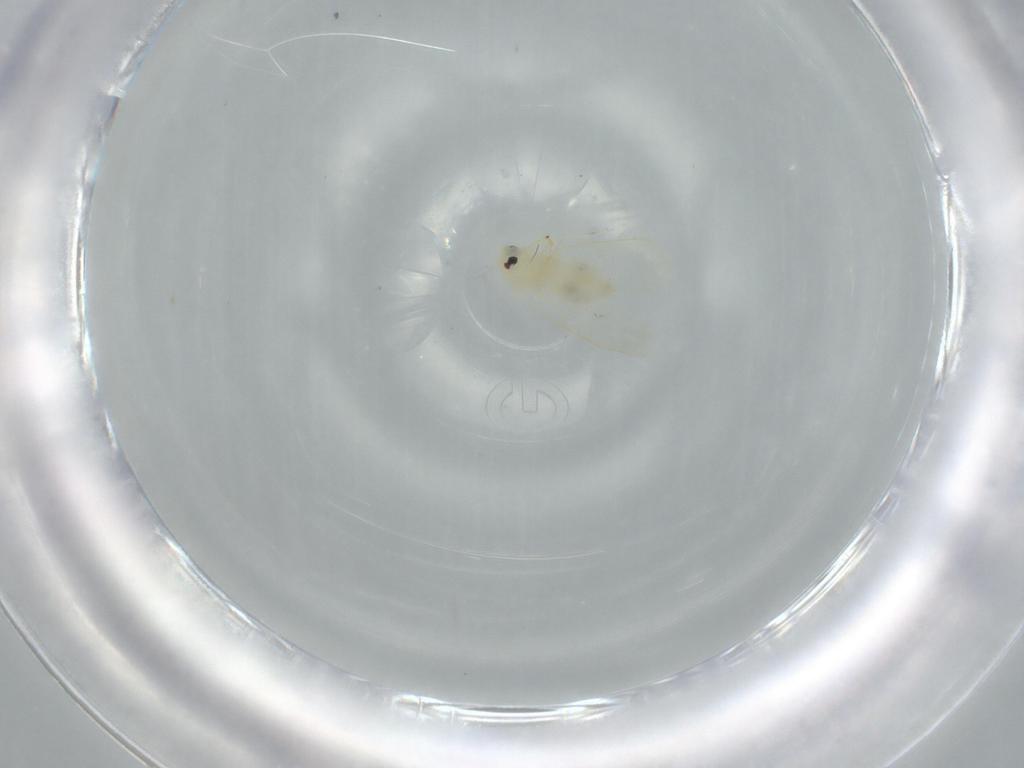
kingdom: Animalia
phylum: Arthropoda
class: Insecta
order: Hemiptera
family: Aleyrodidae
